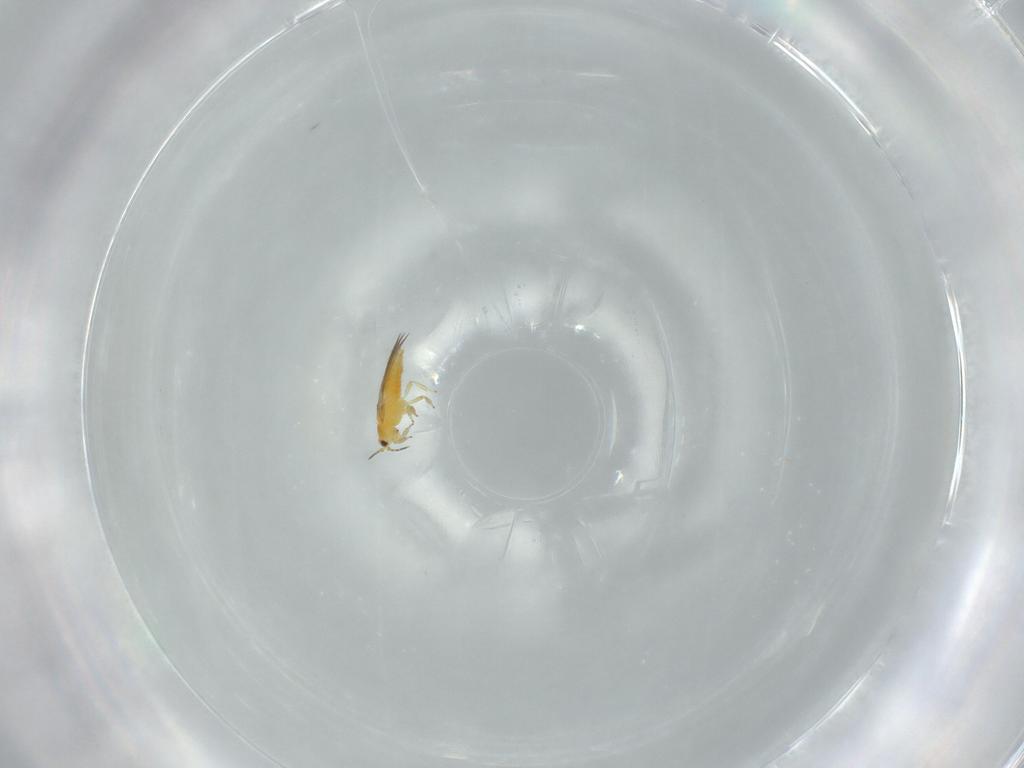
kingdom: Animalia
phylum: Arthropoda
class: Insecta
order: Thysanoptera
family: Thripidae
